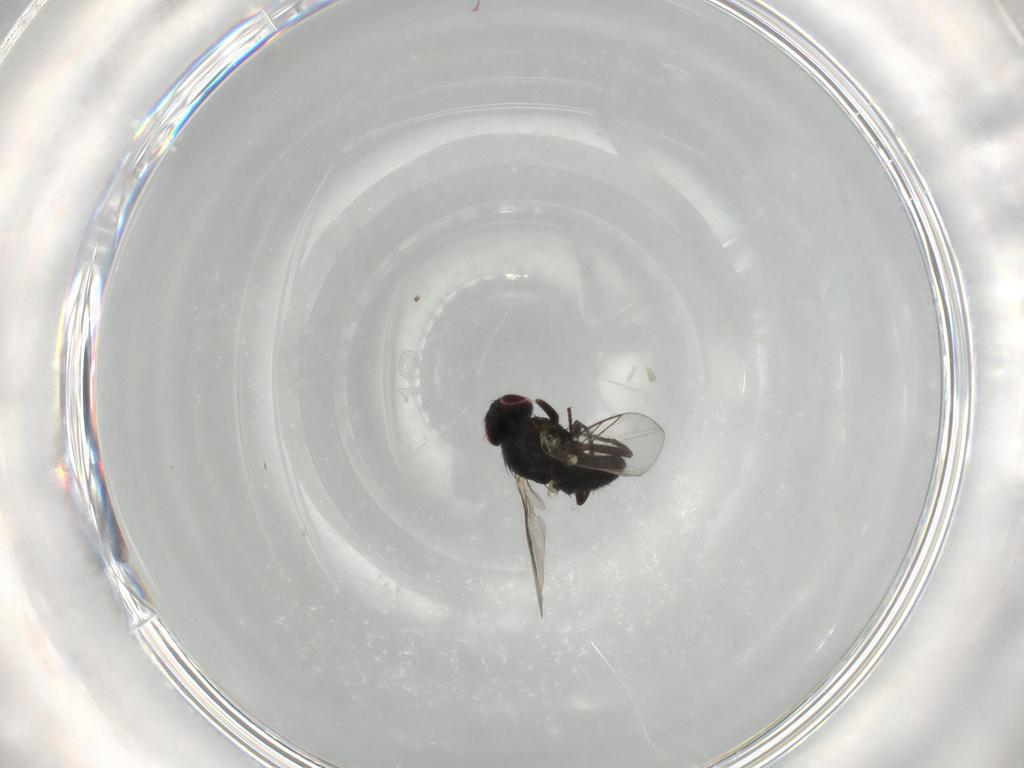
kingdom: Animalia
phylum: Arthropoda
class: Insecta
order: Diptera
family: Agromyzidae
